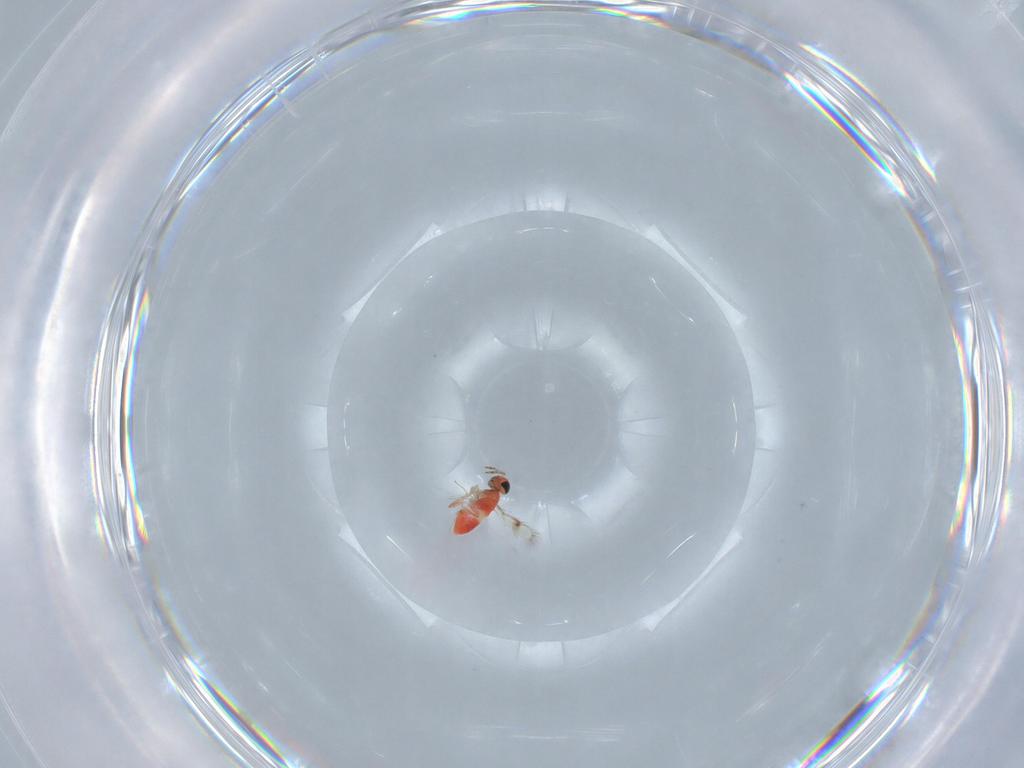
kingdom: Animalia
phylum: Arthropoda
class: Insecta
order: Hymenoptera
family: Trichogrammatidae
